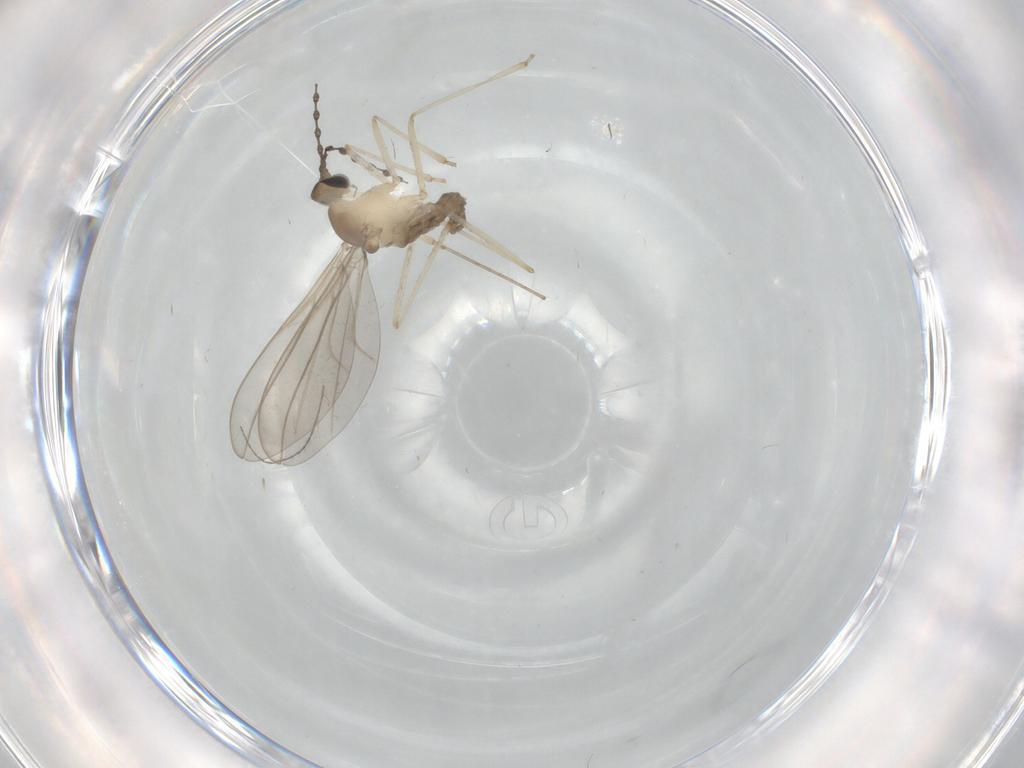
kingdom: Animalia
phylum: Arthropoda
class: Insecta
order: Diptera
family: Cecidomyiidae
